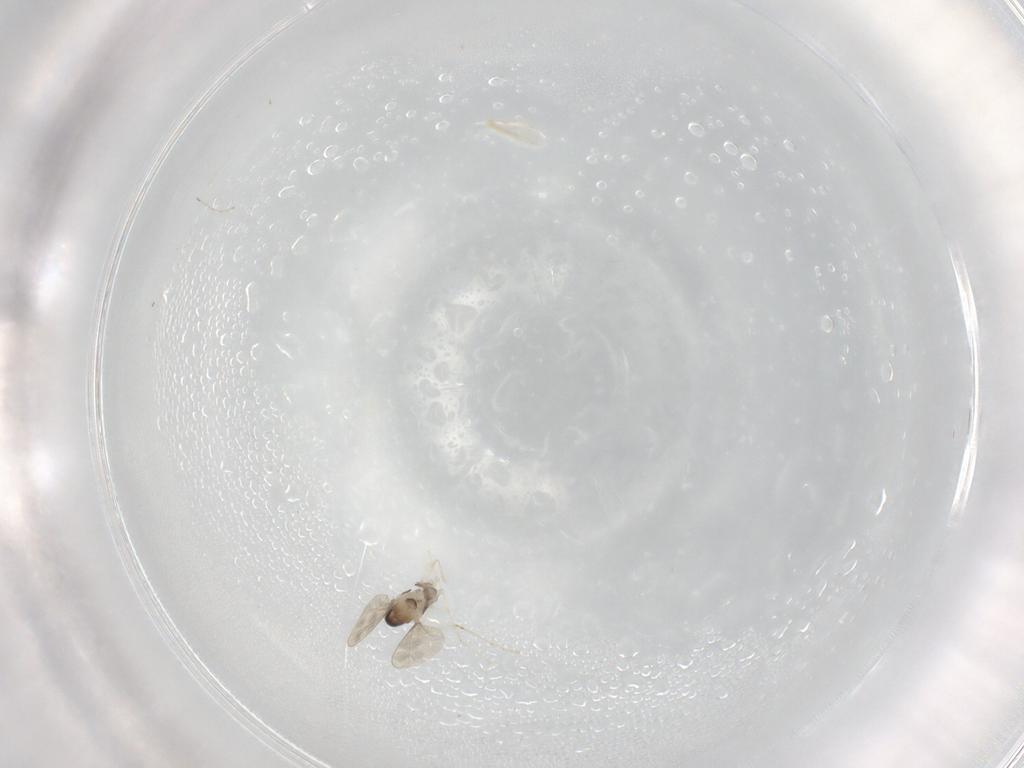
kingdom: Animalia
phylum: Arthropoda
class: Insecta
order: Diptera
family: Cecidomyiidae
